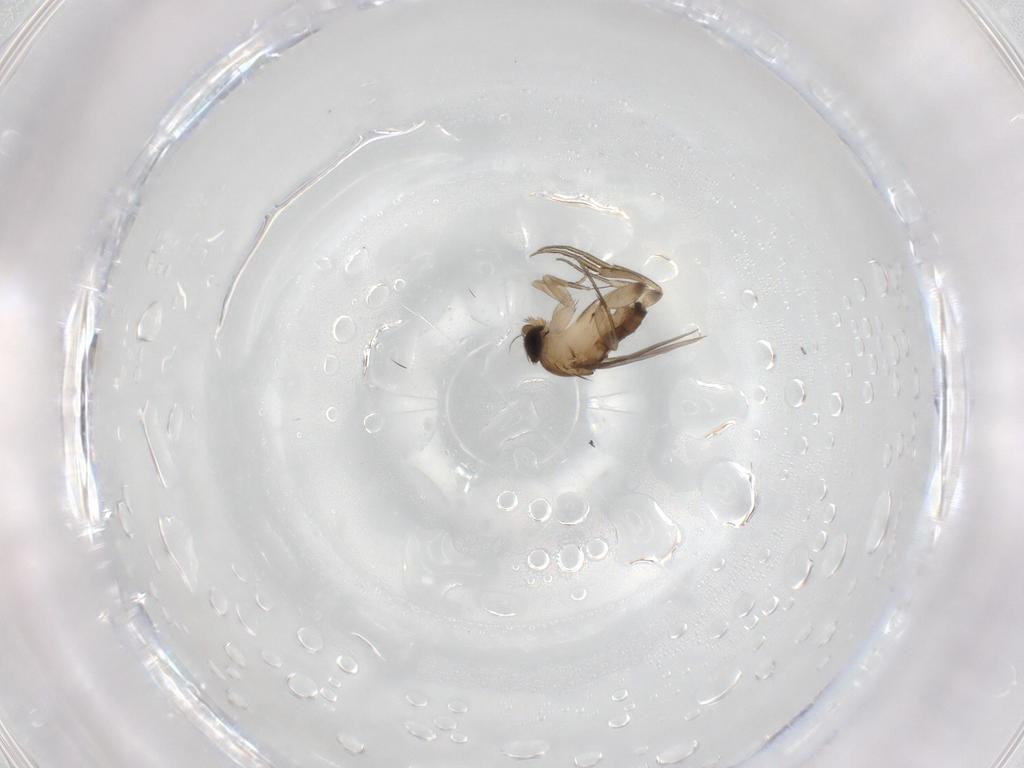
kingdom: Animalia
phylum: Arthropoda
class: Insecta
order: Diptera
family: Phoridae
